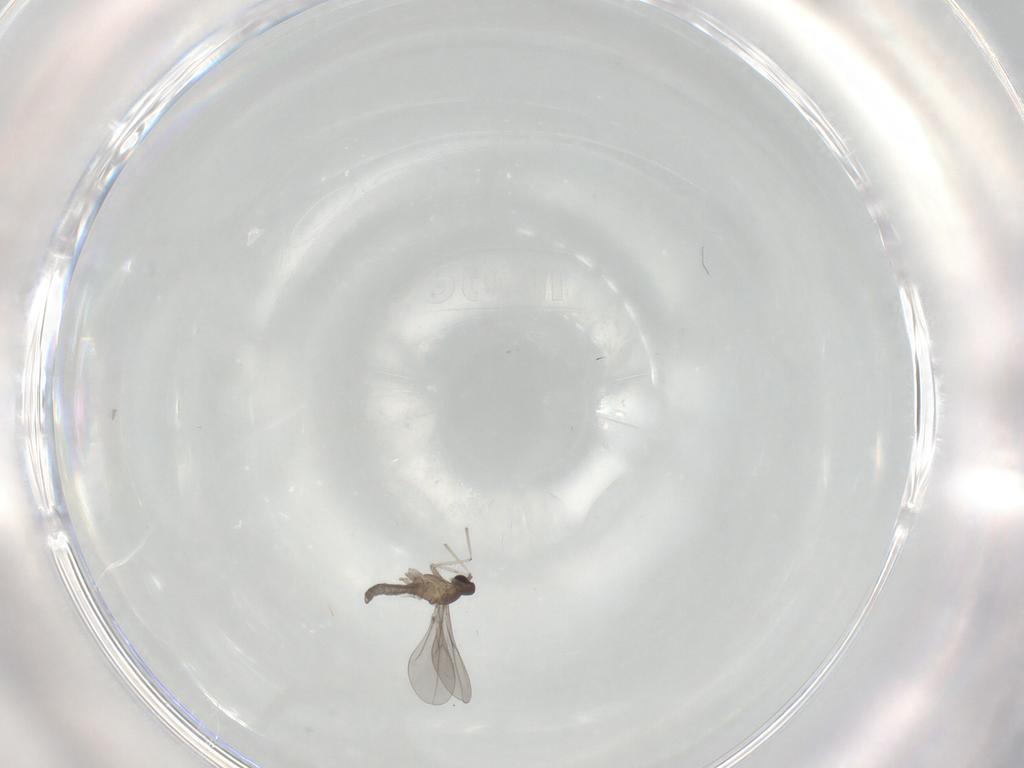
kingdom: Animalia
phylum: Arthropoda
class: Insecta
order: Diptera
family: Cecidomyiidae
